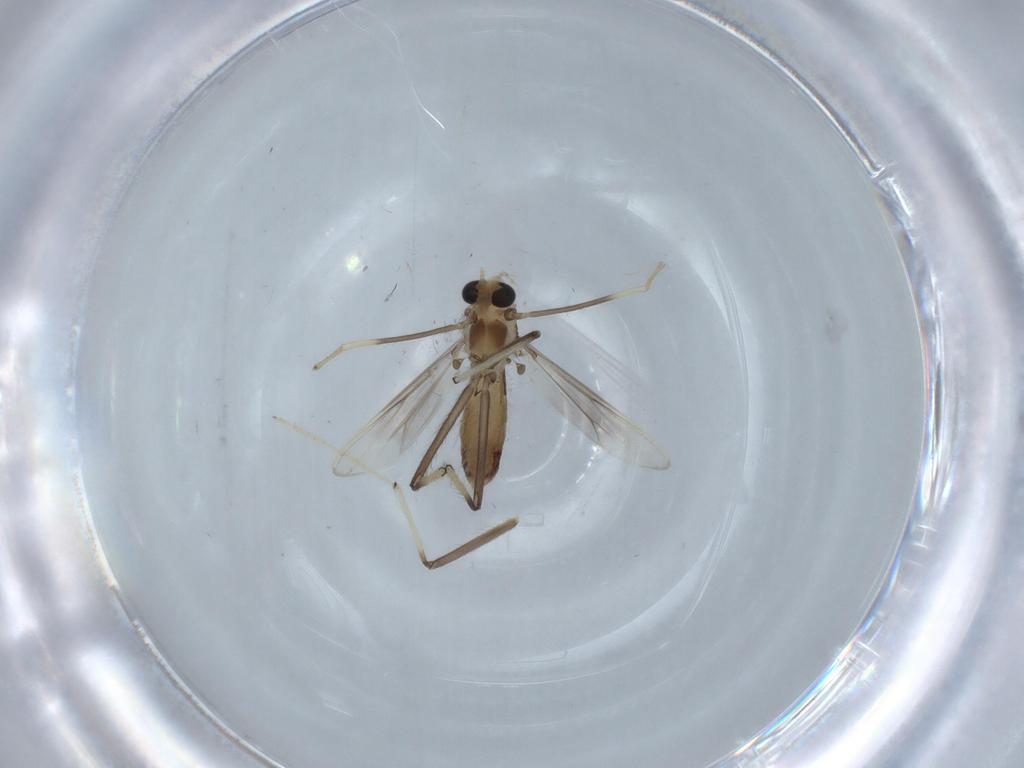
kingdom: Animalia
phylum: Arthropoda
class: Insecta
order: Diptera
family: Chironomidae
